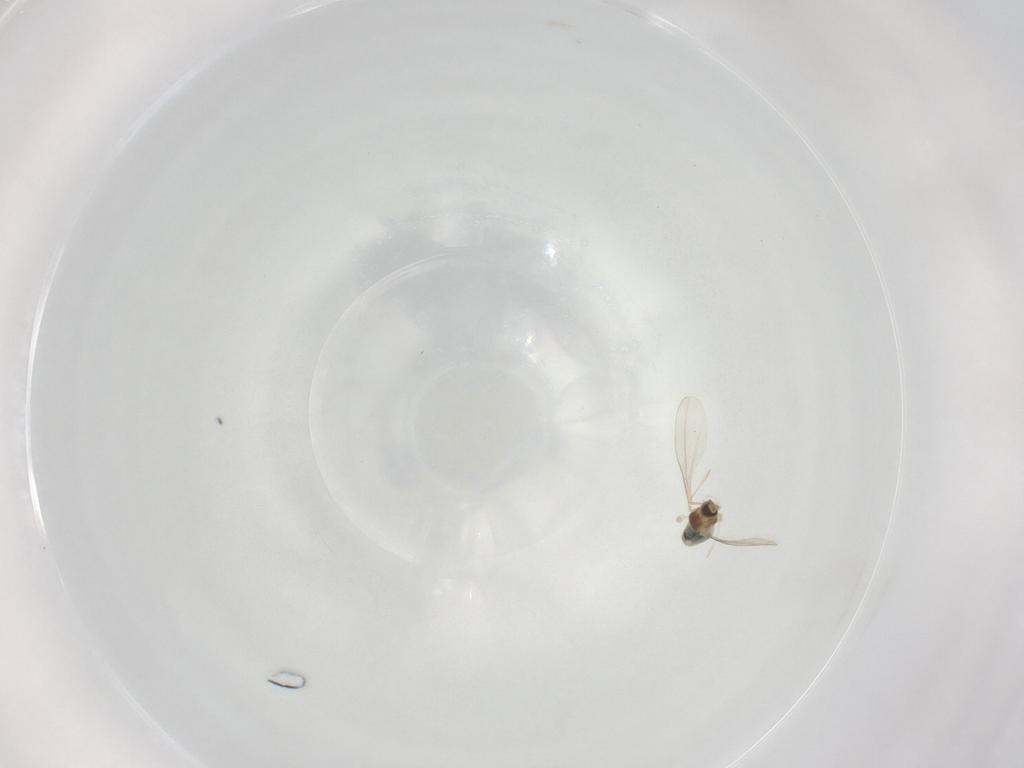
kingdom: Animalia
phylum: Arthropoda
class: Insecta
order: Diptera
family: Cecidomyiidae
